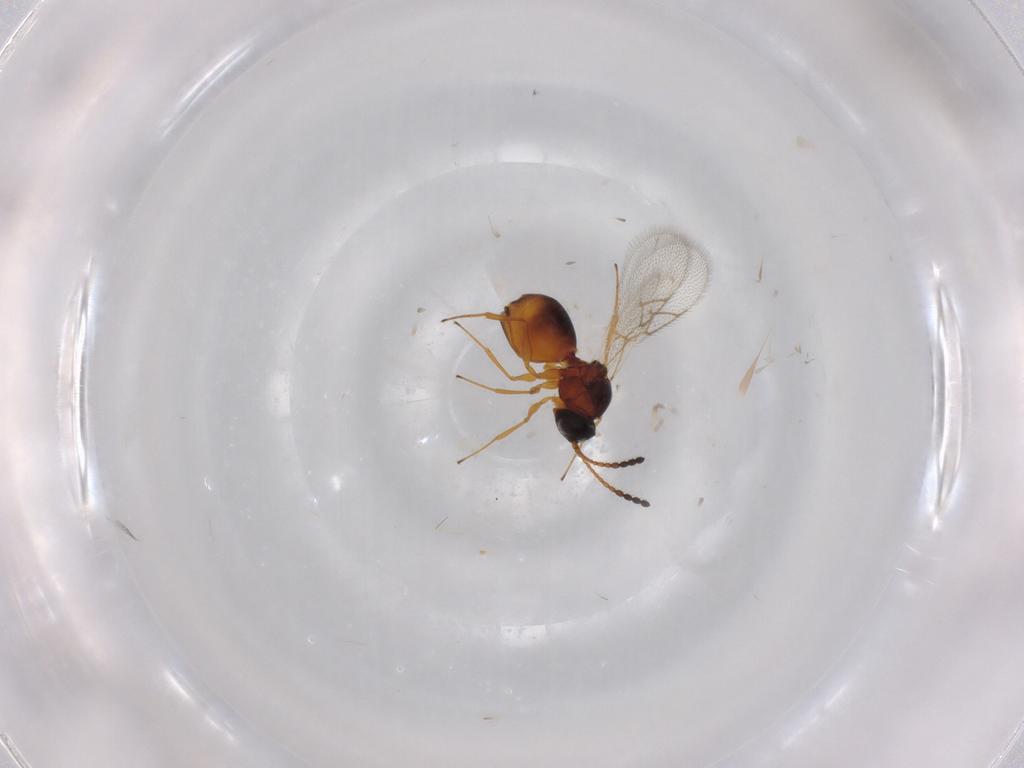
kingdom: Animalia
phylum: Arthropoda
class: Insecta
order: Hymenoptera
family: Figitidae
